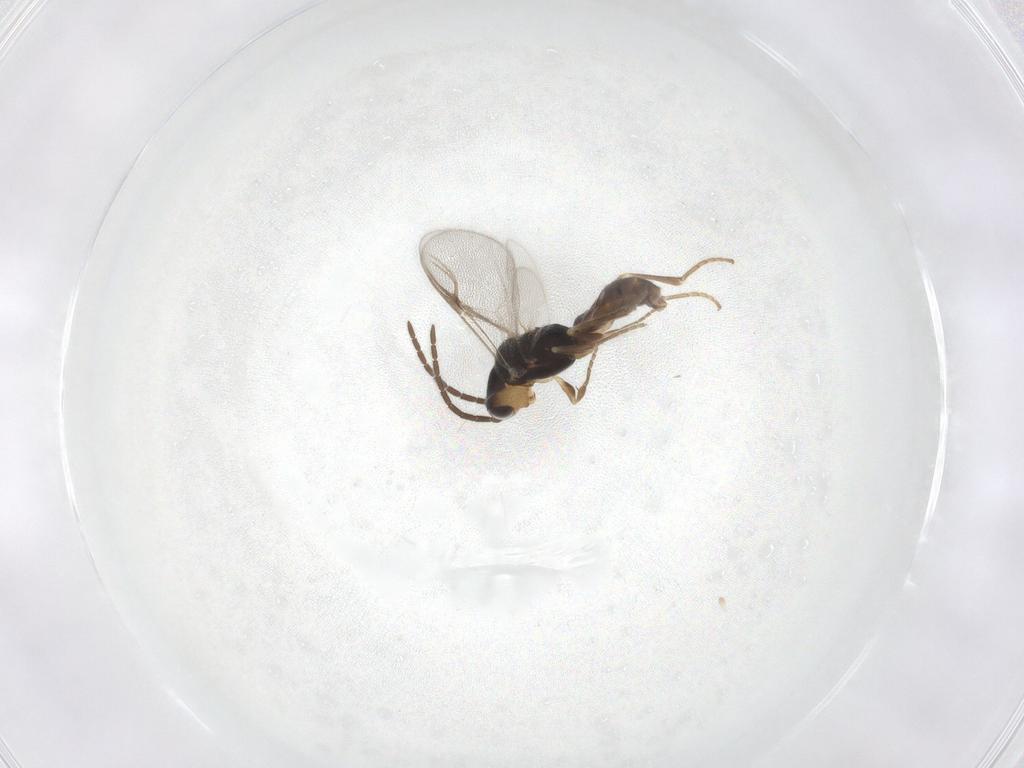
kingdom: Animalia
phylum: Arthropoda
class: Insecta
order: Hymenoptera
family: Dryinidae
